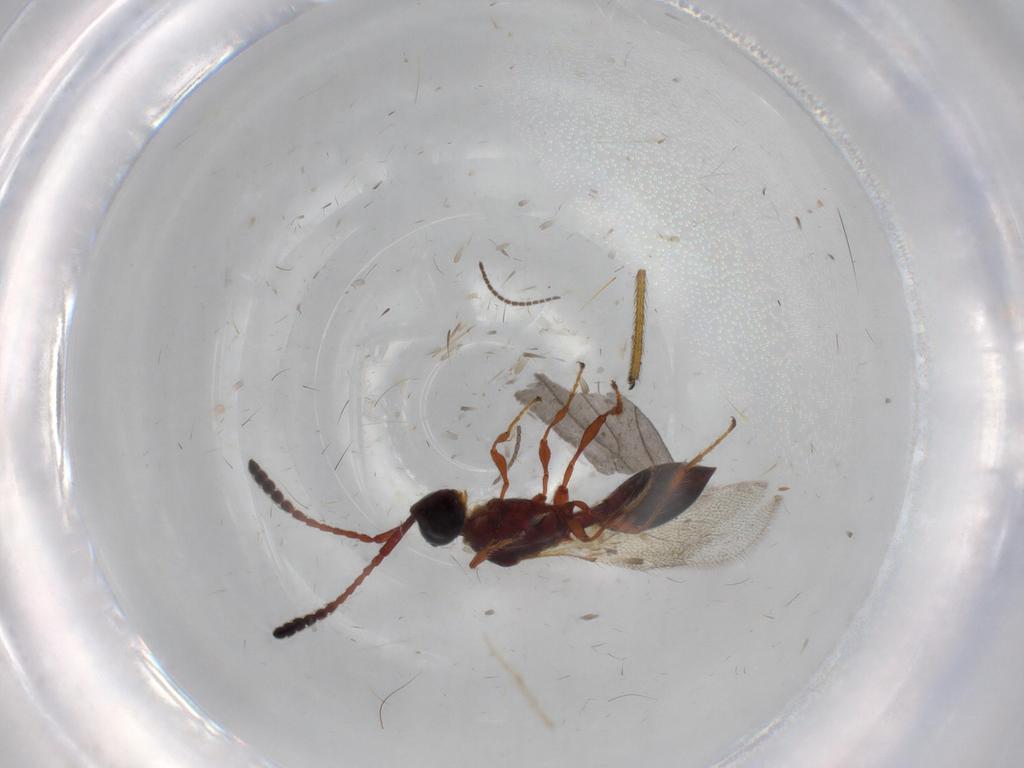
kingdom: Animalia
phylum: Arthropoda
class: Insecta
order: Hymenoptera
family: Diapriidae
